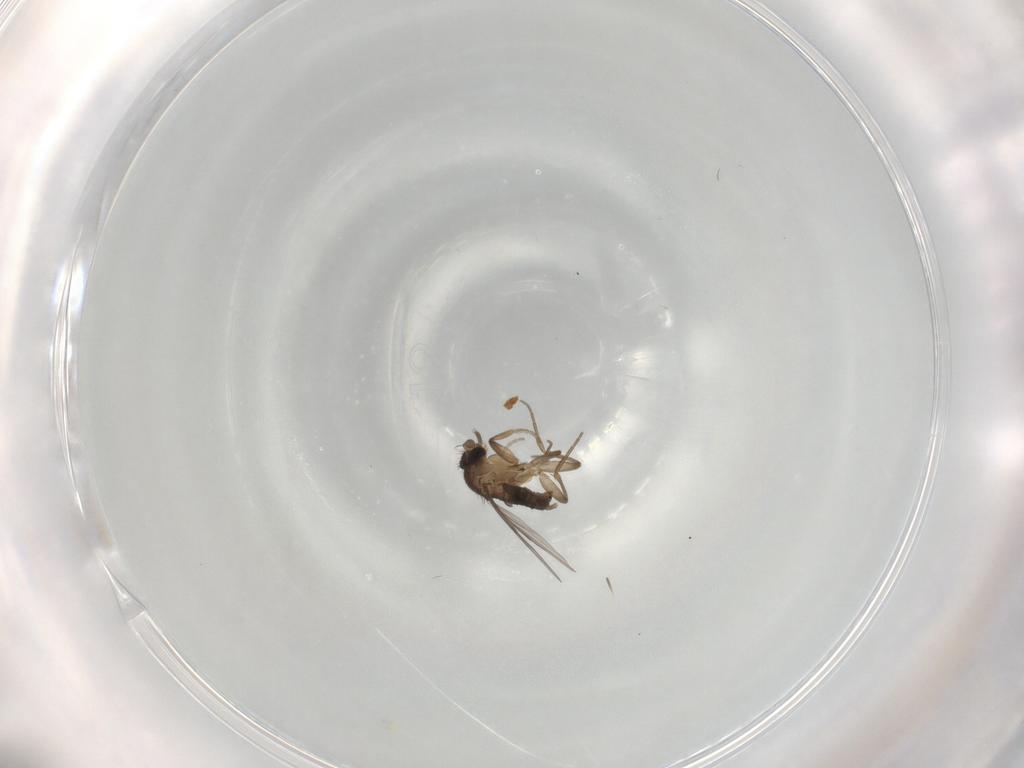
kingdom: Animalia
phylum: Arthropoda
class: Insecta
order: Diptera
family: Phoridae
